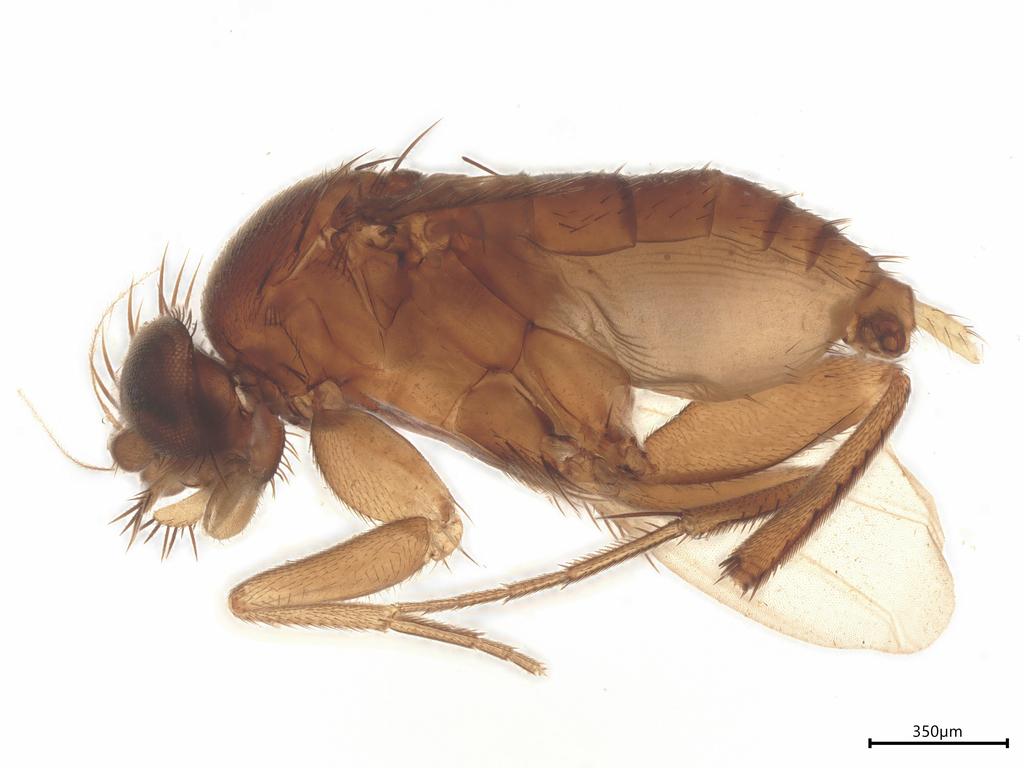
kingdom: Animalia
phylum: Arthropoda
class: Insecta
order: Diptera
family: Phoridae
